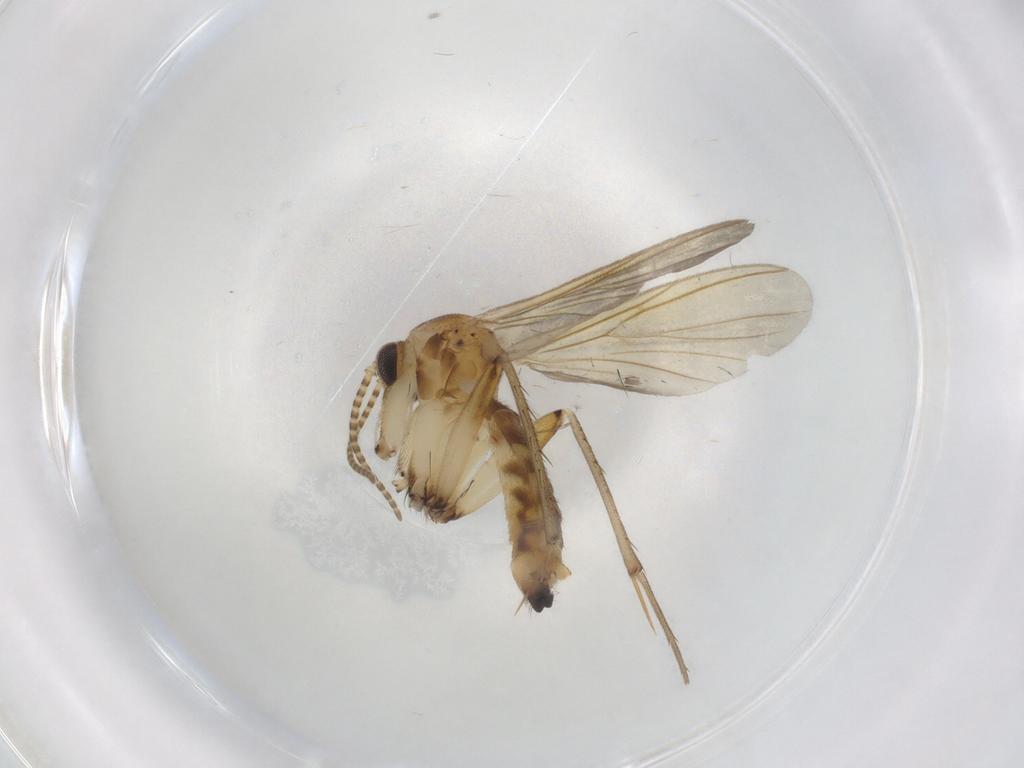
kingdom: Animalia
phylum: Arthropoda
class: Insecta
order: Diptera
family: Mycetophilidae
